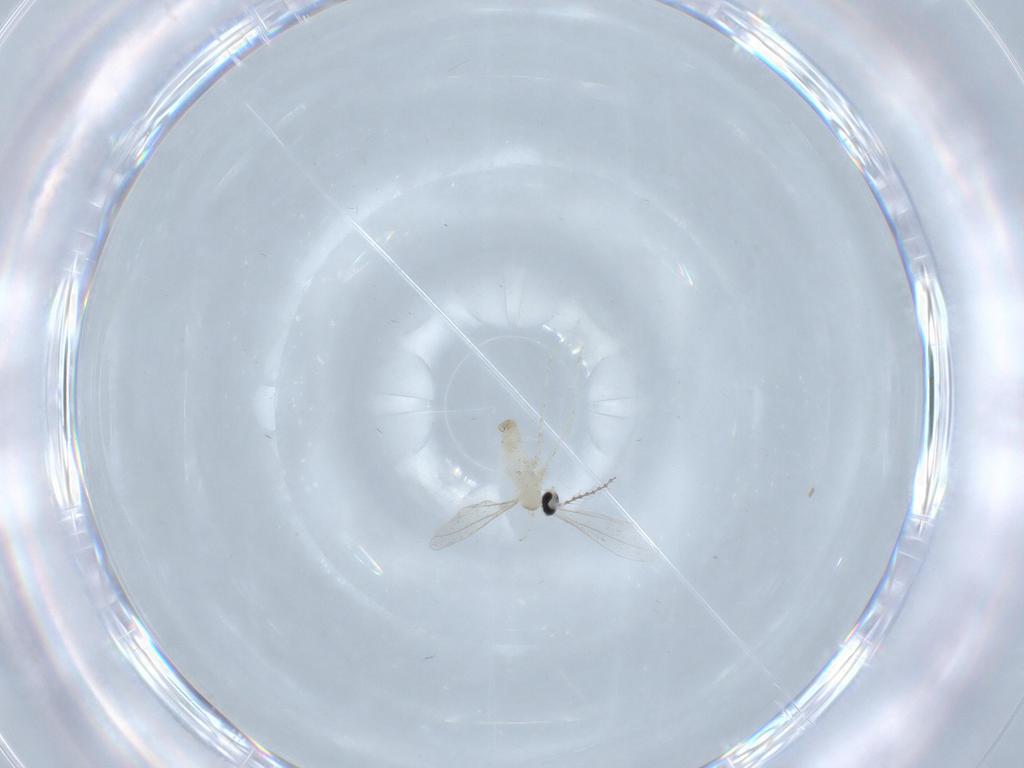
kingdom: Animalia
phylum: Arthropoda
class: Insecta
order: Diptera
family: Cecidomyiidae
